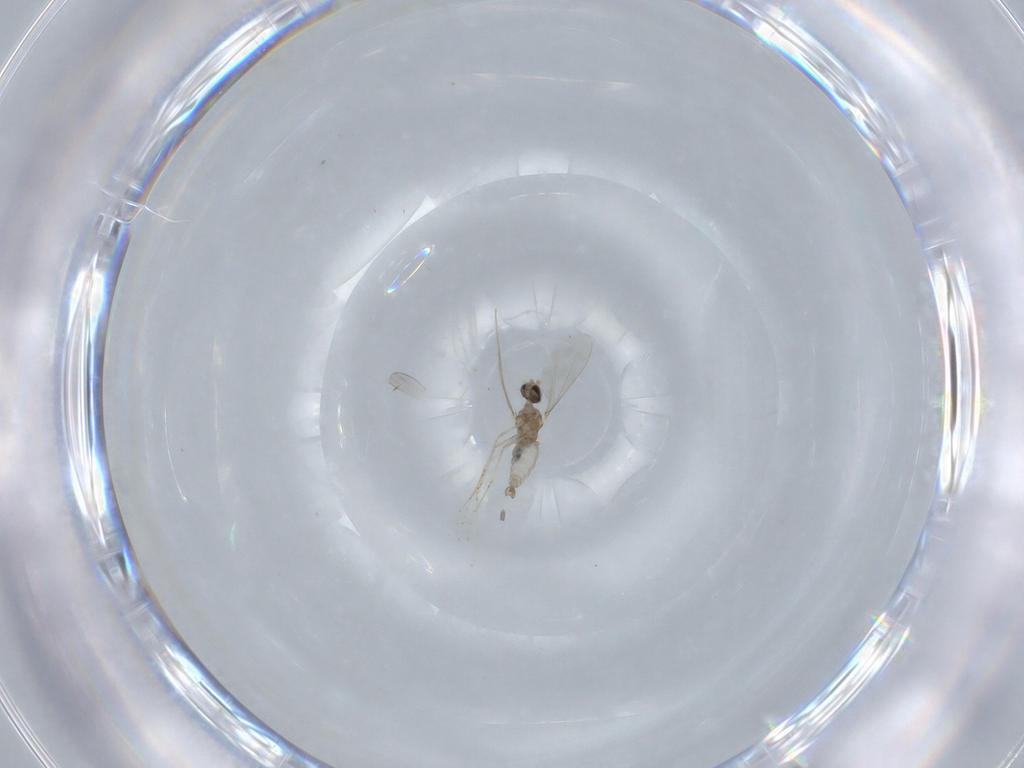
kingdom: Animalia
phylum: Arthropoda
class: Insecta
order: Diptera
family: Cecidomyiidae
